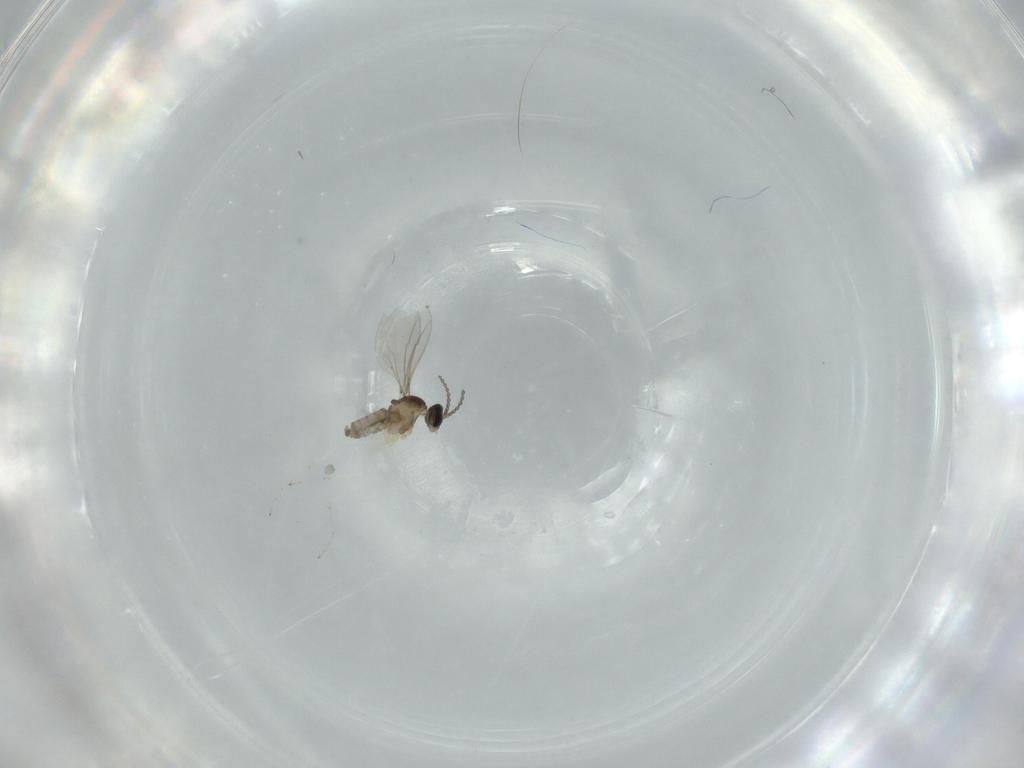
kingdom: Animalia
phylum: Arthropoda
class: Insecta
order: Diptera
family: Cecidomyiidae
